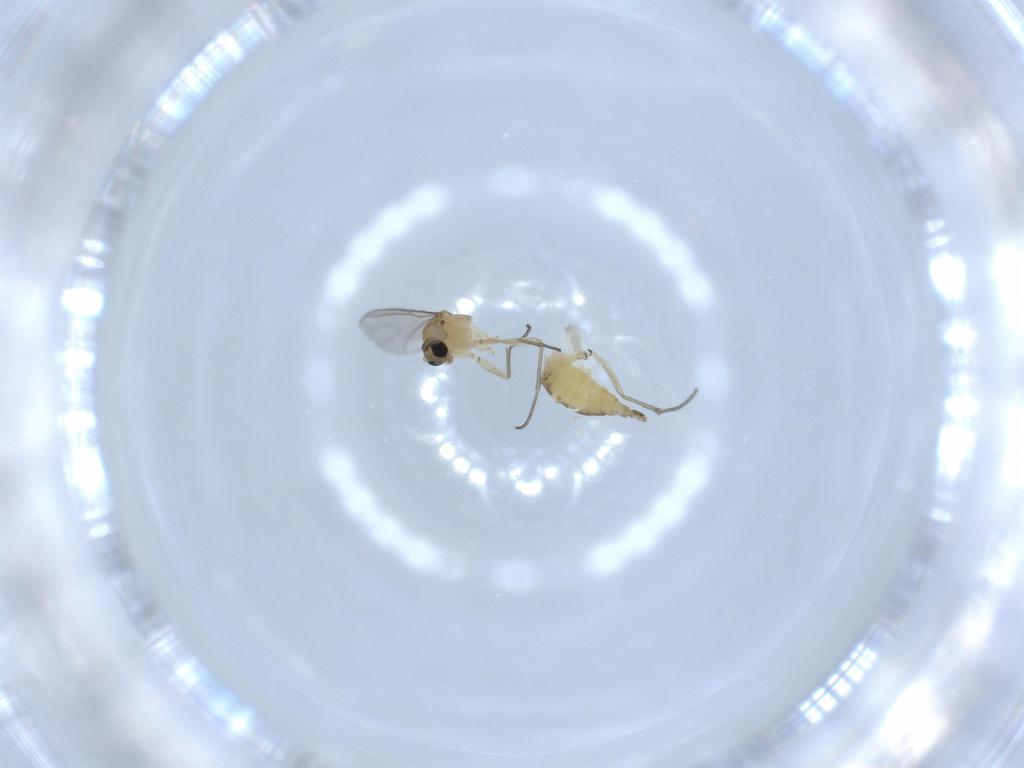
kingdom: Animalia
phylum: Arthropoda
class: Insecta
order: Diptera
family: Sciaridae
